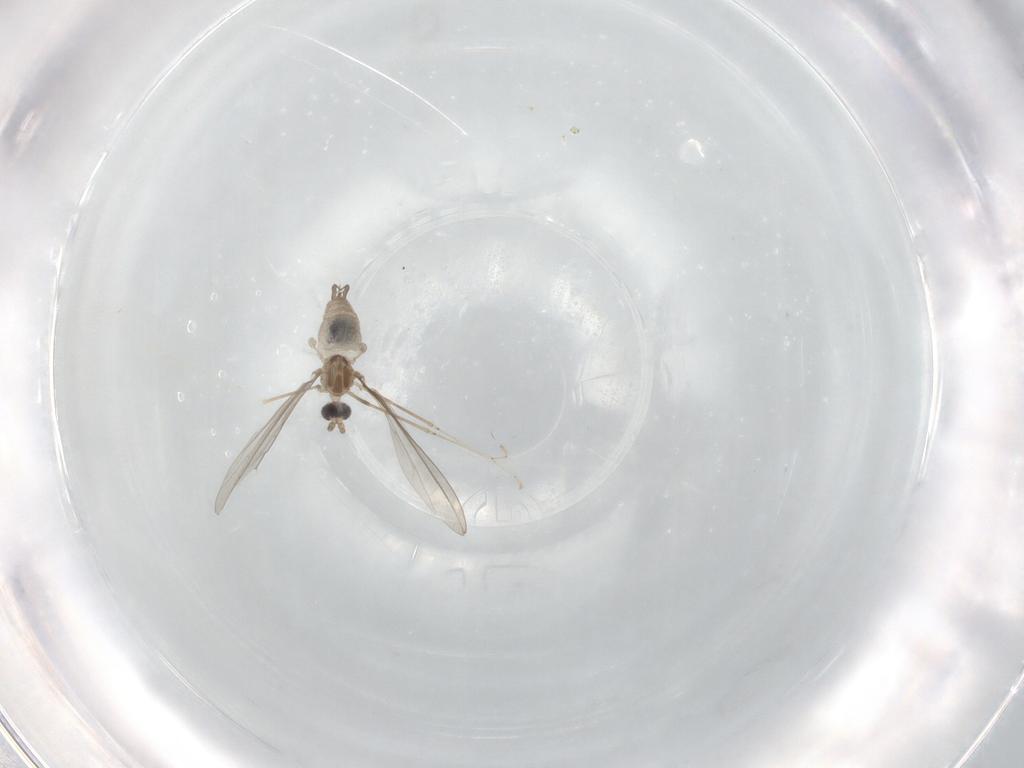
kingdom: Animalia
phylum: Arthropoda
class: Insecta
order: Diptera
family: Cecidomyiidae
